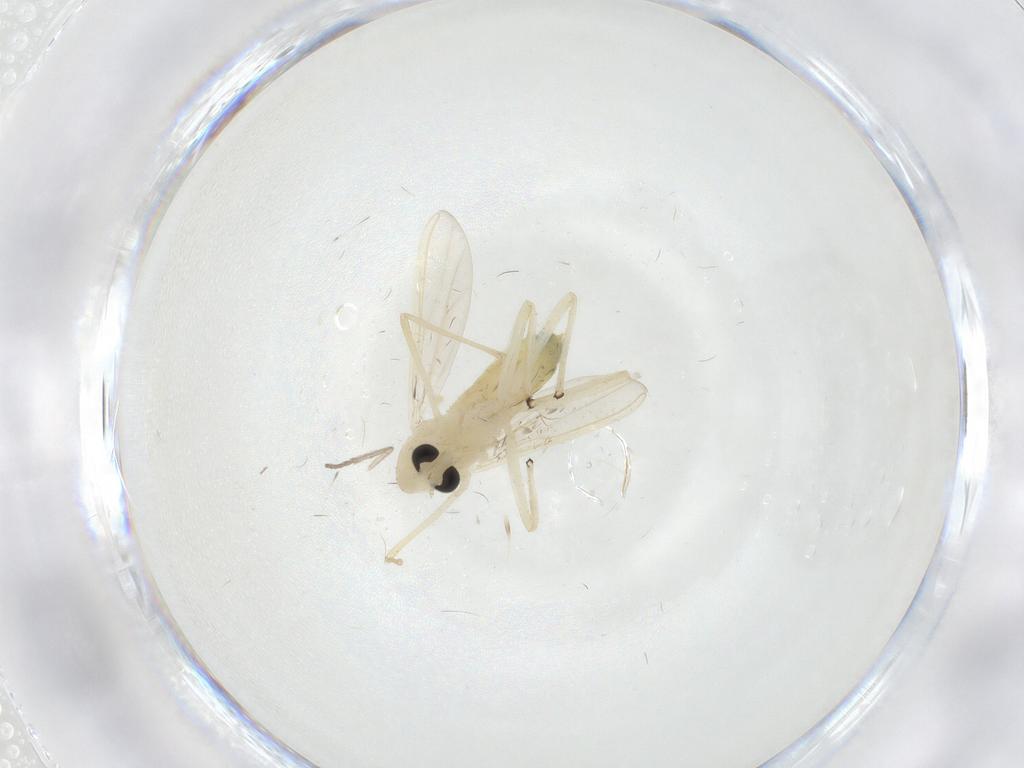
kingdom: Animalia
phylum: Arthropoda
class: Insecta
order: Diptera
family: Chironomidae
